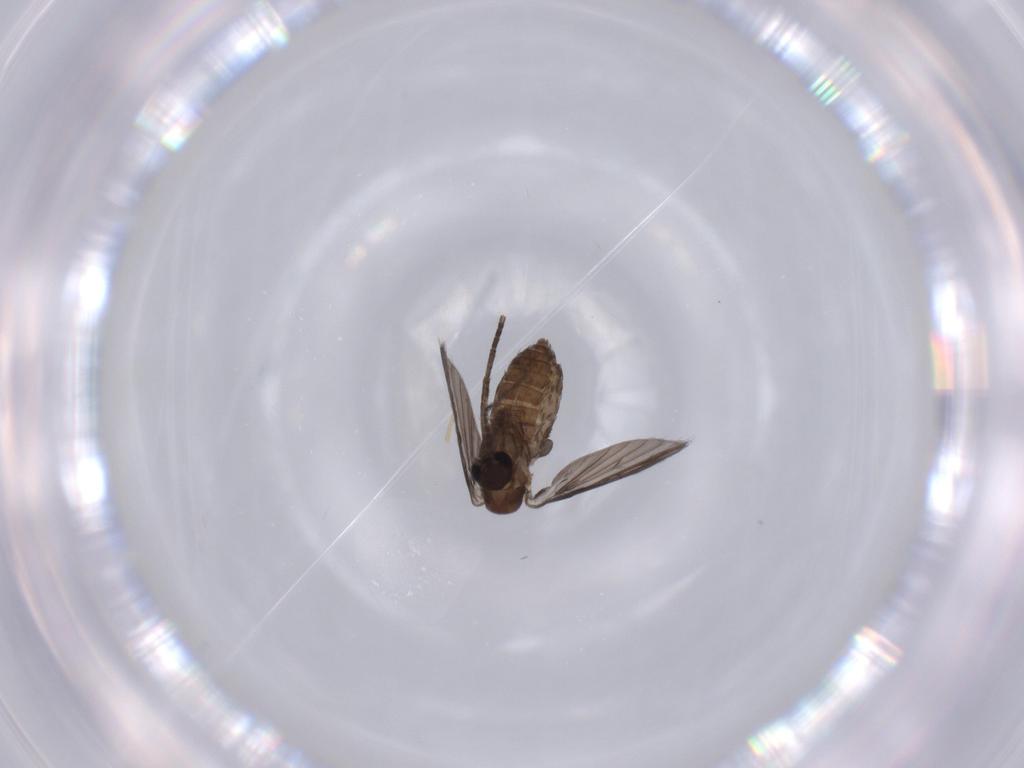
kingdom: Animalia
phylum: Arthropoda
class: Insecta
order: Diptera
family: Psychodidae
